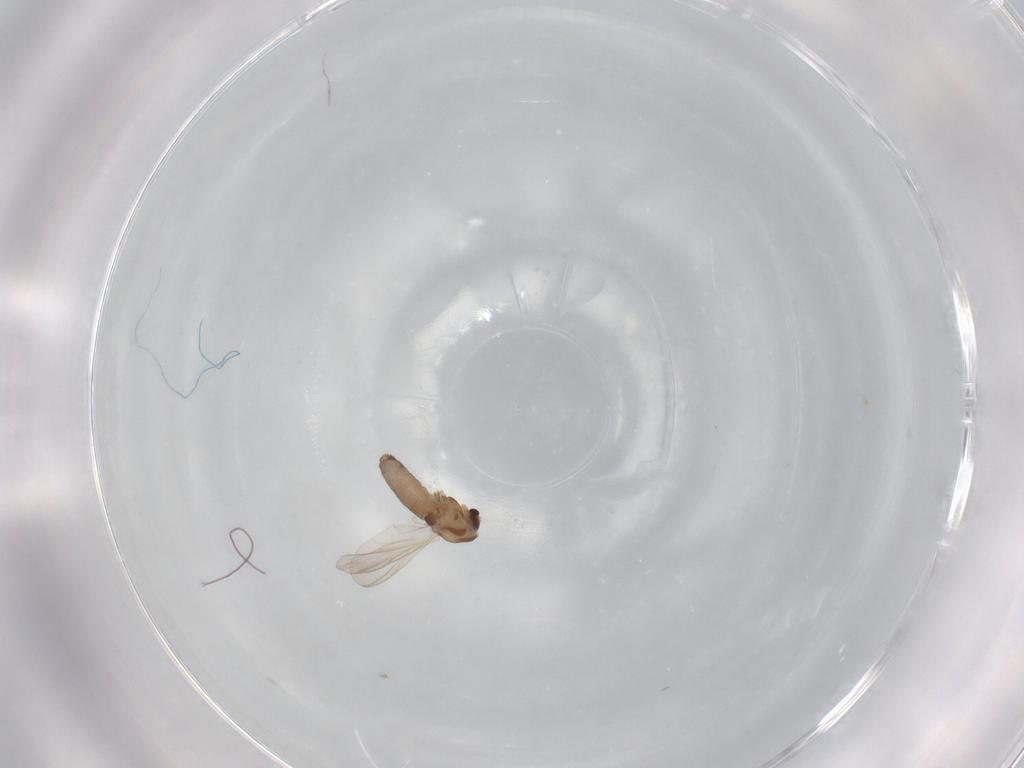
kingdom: Animalia
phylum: Arthropoda
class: Insecta
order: Diptera
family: Chironomidae
